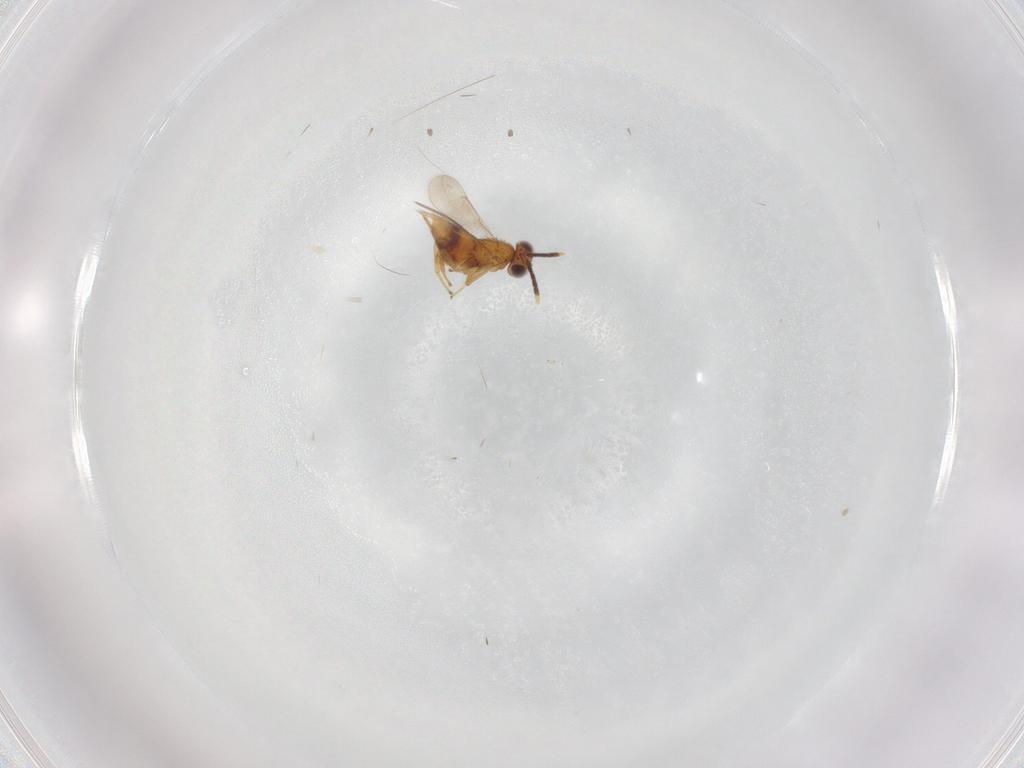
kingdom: Animalia
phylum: Arthropoda
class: Insecta
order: Hymenoptera
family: Aphelinidae
